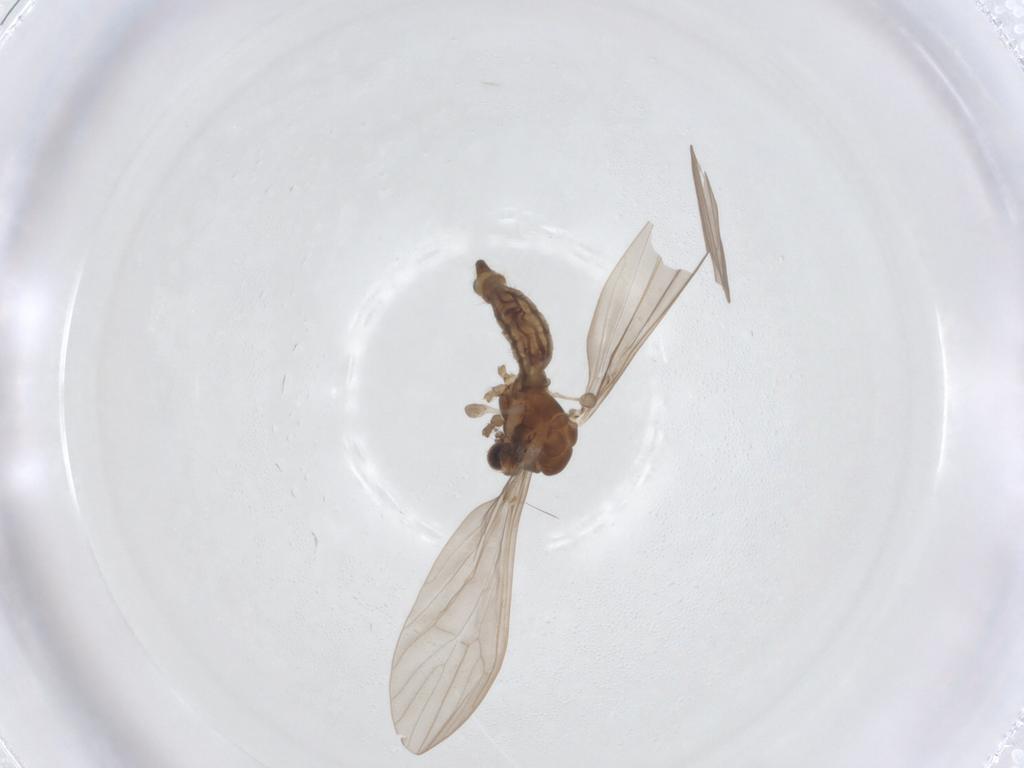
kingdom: Animalia
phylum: Arthropoda
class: Insecta
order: Diptera
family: Limoniidae
